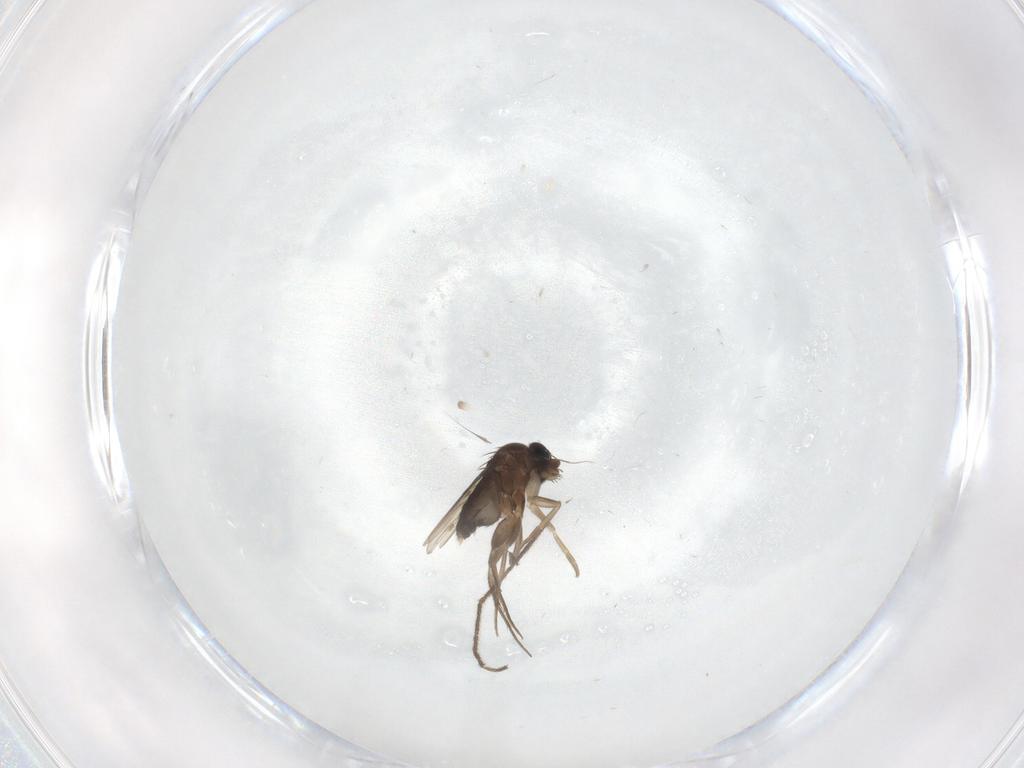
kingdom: Animalia
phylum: Arthropoda
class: Insecta
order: Diptera
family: Phoridae
